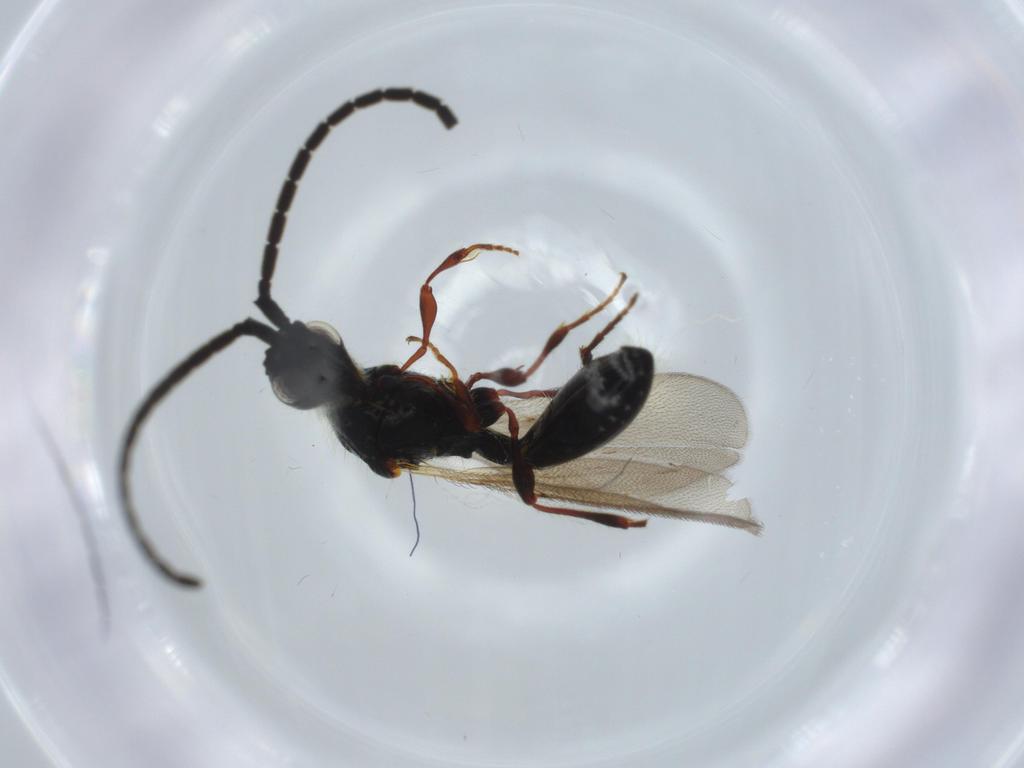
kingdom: Animalia
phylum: Arthropoda
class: Insecta
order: Hymenoptera
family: Diapriidae
